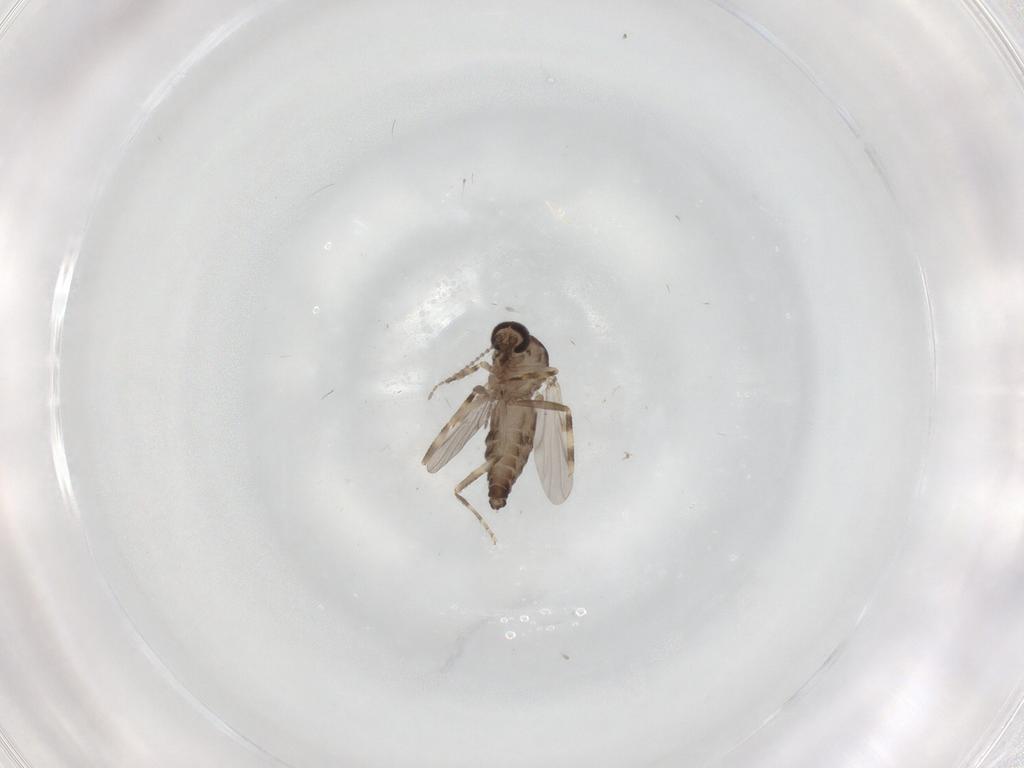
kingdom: Animalia
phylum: Arthropoda
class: Insecta
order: Diptera
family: Ceratopogonidae
